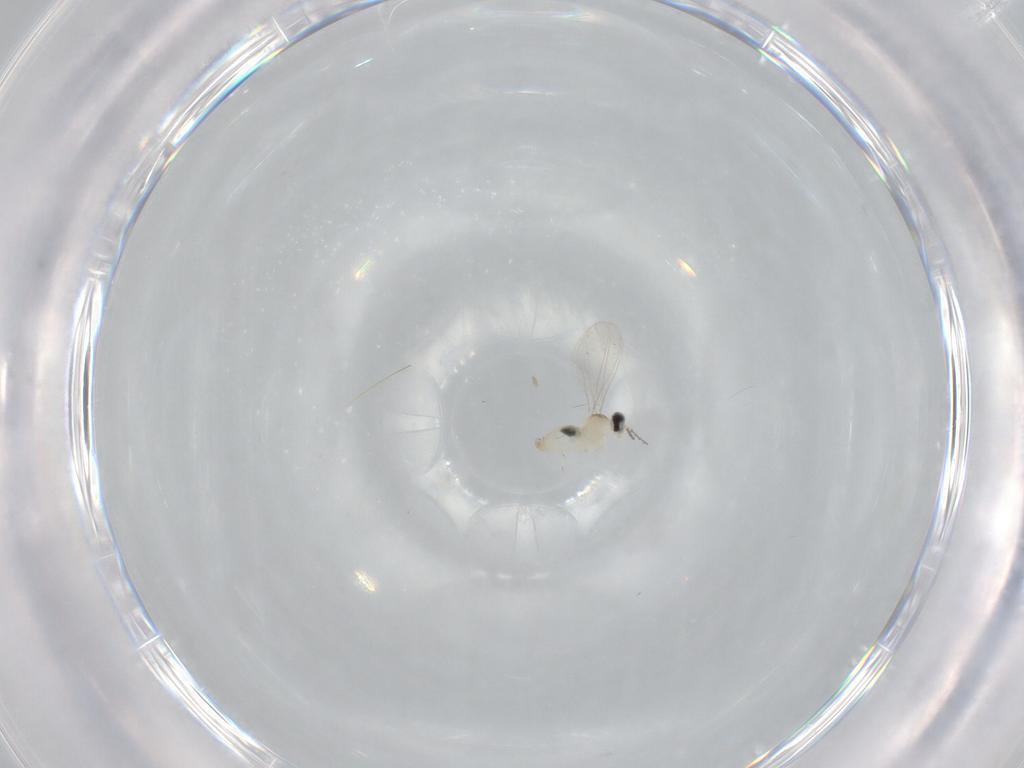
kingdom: Animalia
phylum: Arthropoda
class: Insecta
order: Diptera
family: Cecidomyiidae
